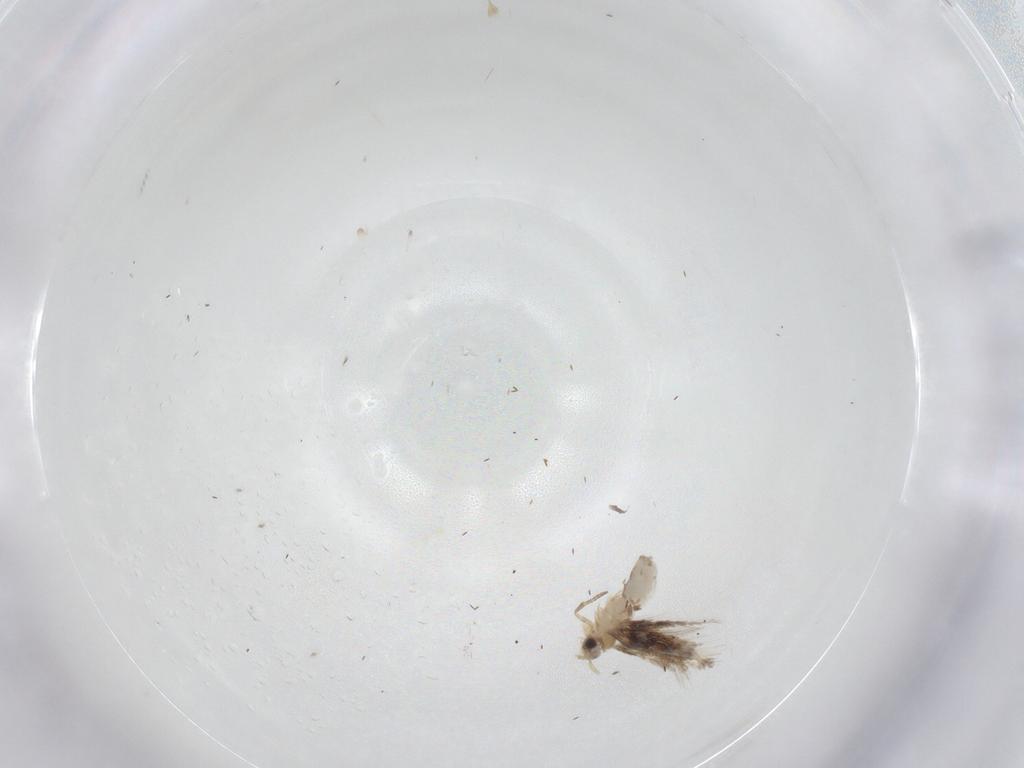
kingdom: Animalia
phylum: Arthropoda
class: Insecta
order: Lepidoptera
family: Nepticulidae
